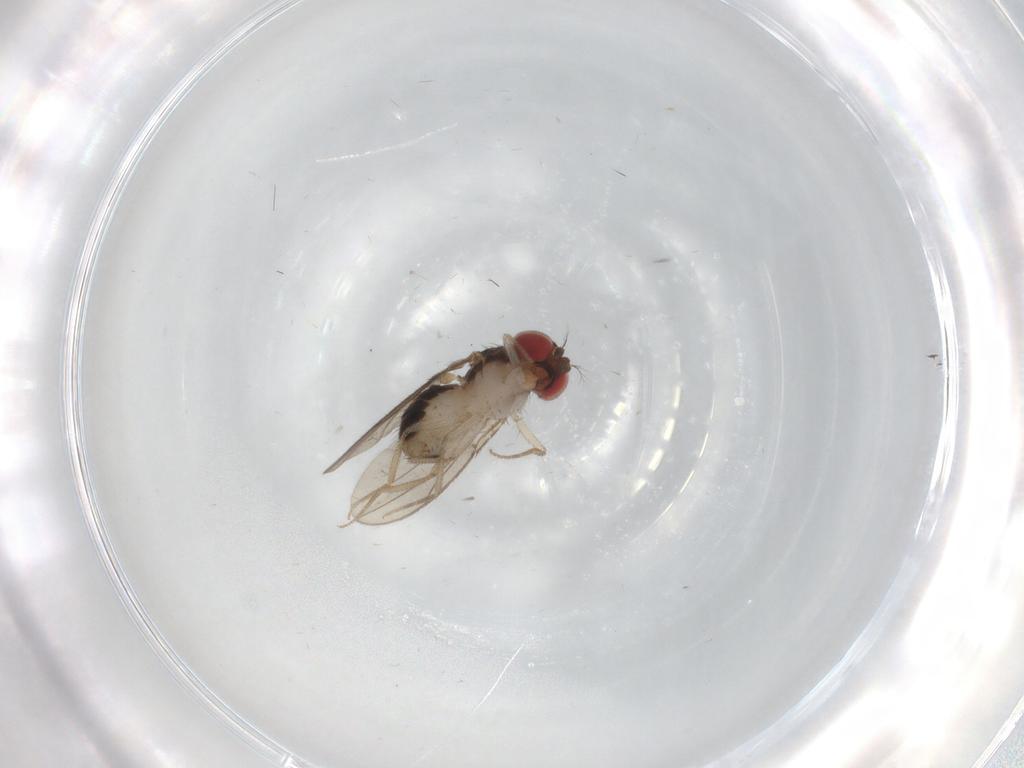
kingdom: Animalia
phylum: Arthropoda
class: Insecta
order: Diptera
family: Drosophilidae
